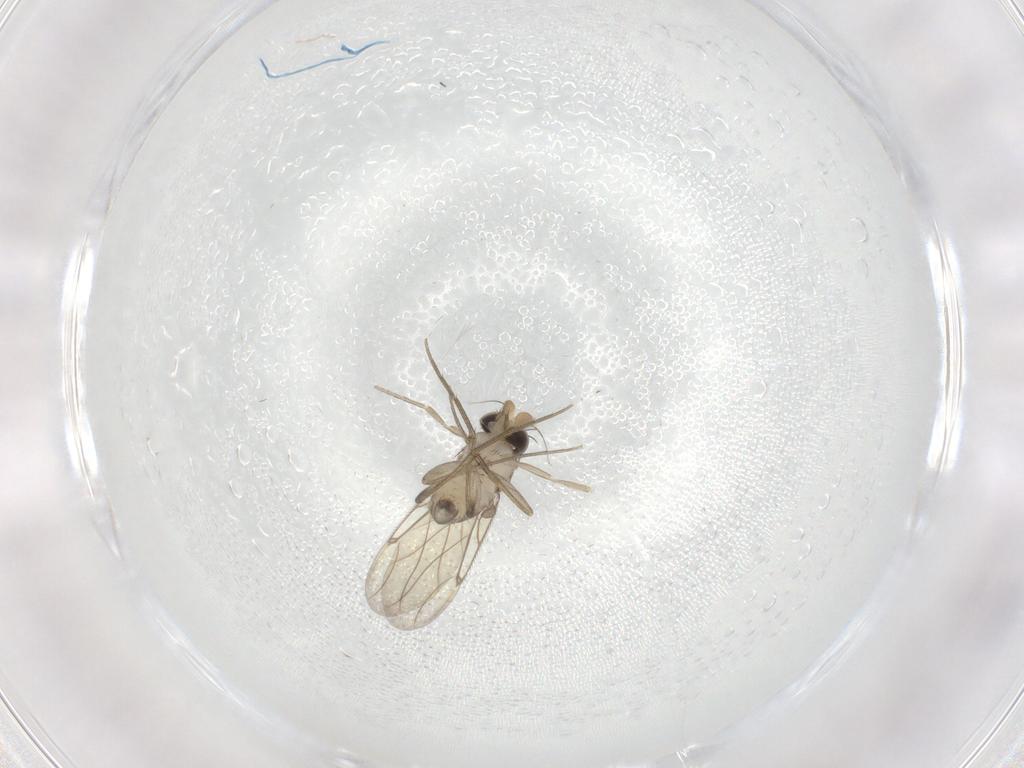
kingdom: Animalia
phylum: Arthropoda
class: Insecta
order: Diptera
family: Phoridae
